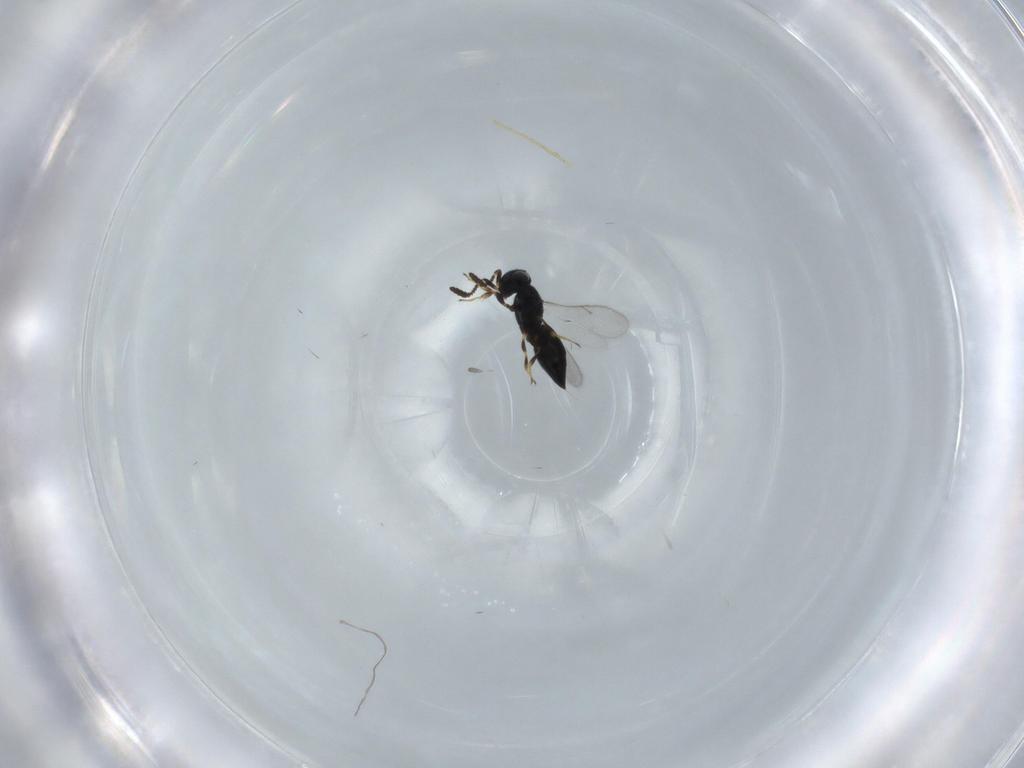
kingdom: Animalia
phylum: Arthropoda
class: Insecta
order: Hymenoptera
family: Scelionidae
